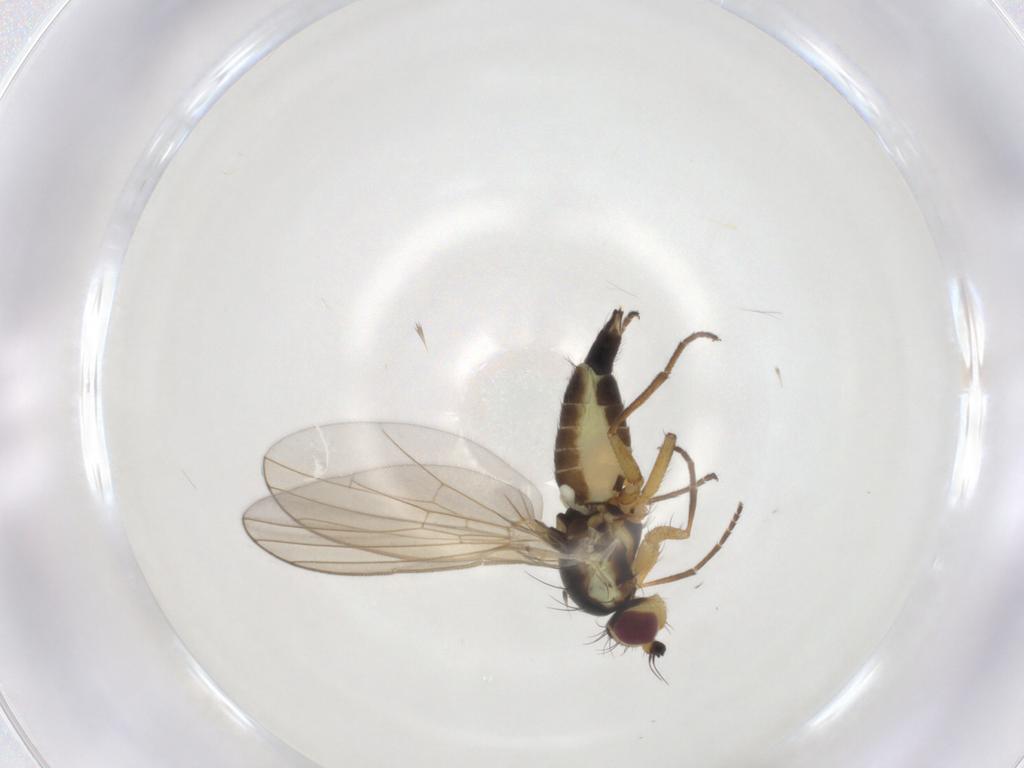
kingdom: Animalia
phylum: Arthropoda
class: Insecta
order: Diptera
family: Agromyzidae
